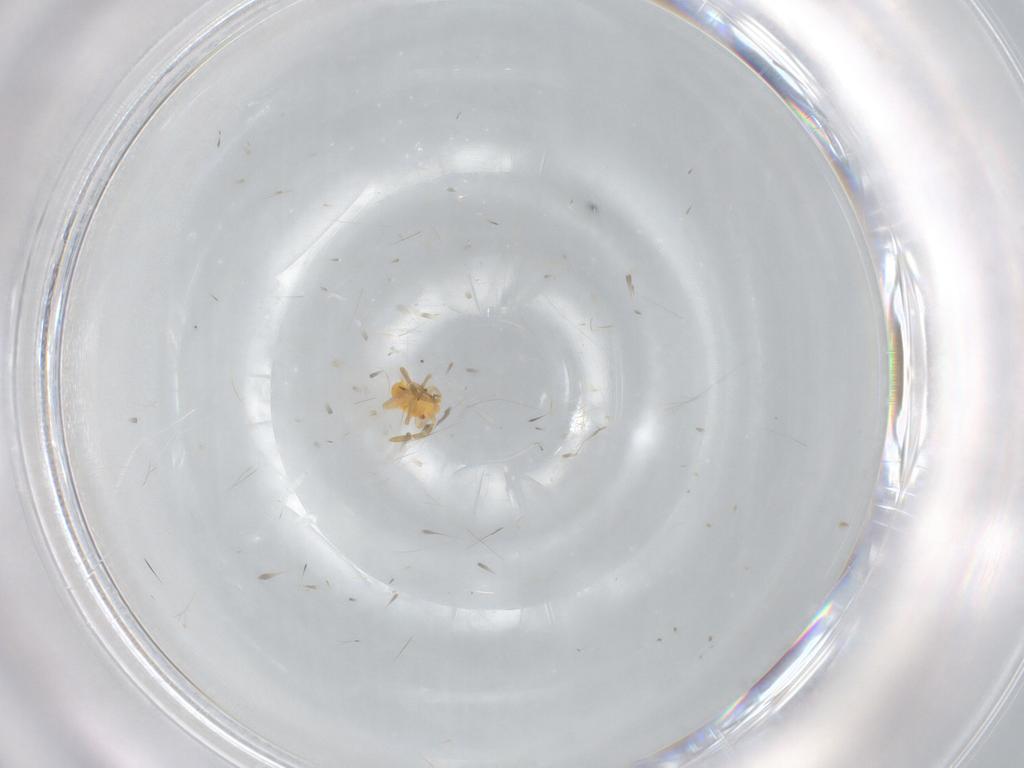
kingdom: Animalia
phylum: Arthropoda
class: Insecta
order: Hemiptera
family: Miridae
